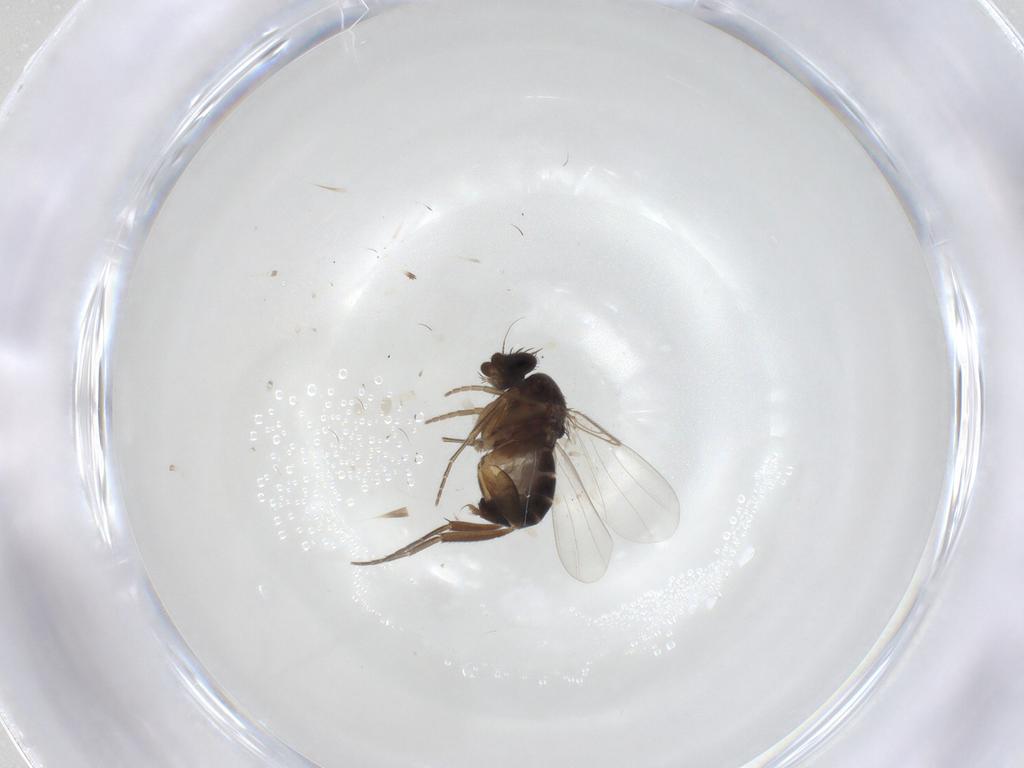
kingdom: Animalia
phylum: Arthropoda
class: Insecta
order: Diptera
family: Phoridae
